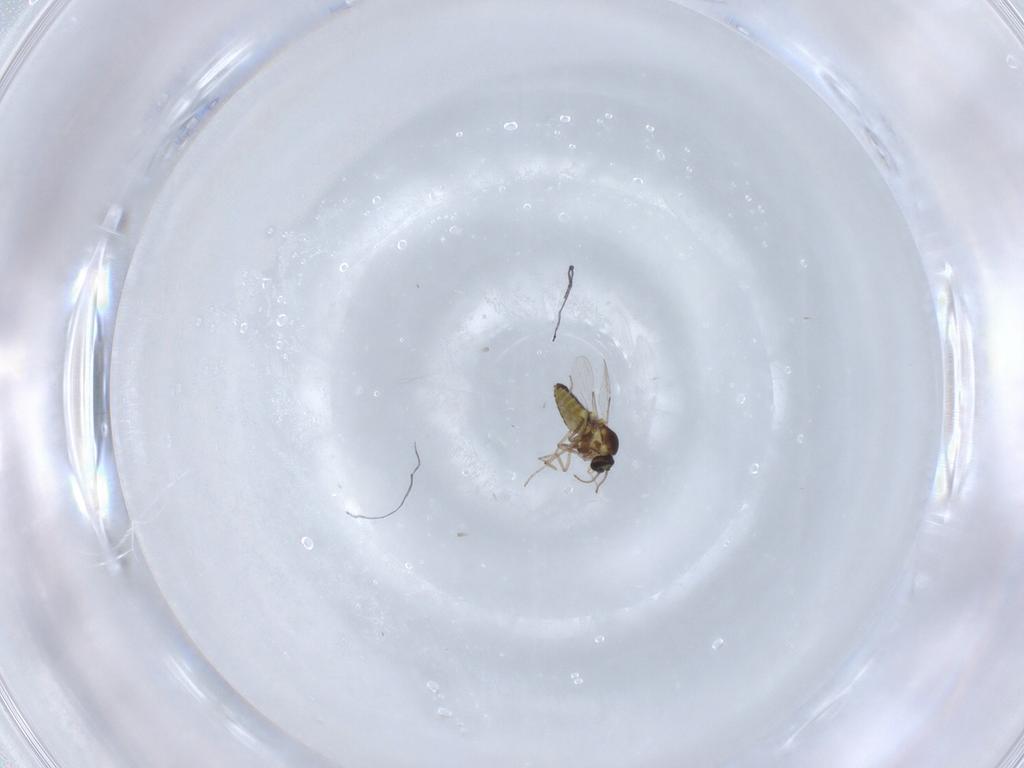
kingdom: Animalia
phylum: Arthropoda
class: Insecta
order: Diptera
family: Ceratopogonidae
